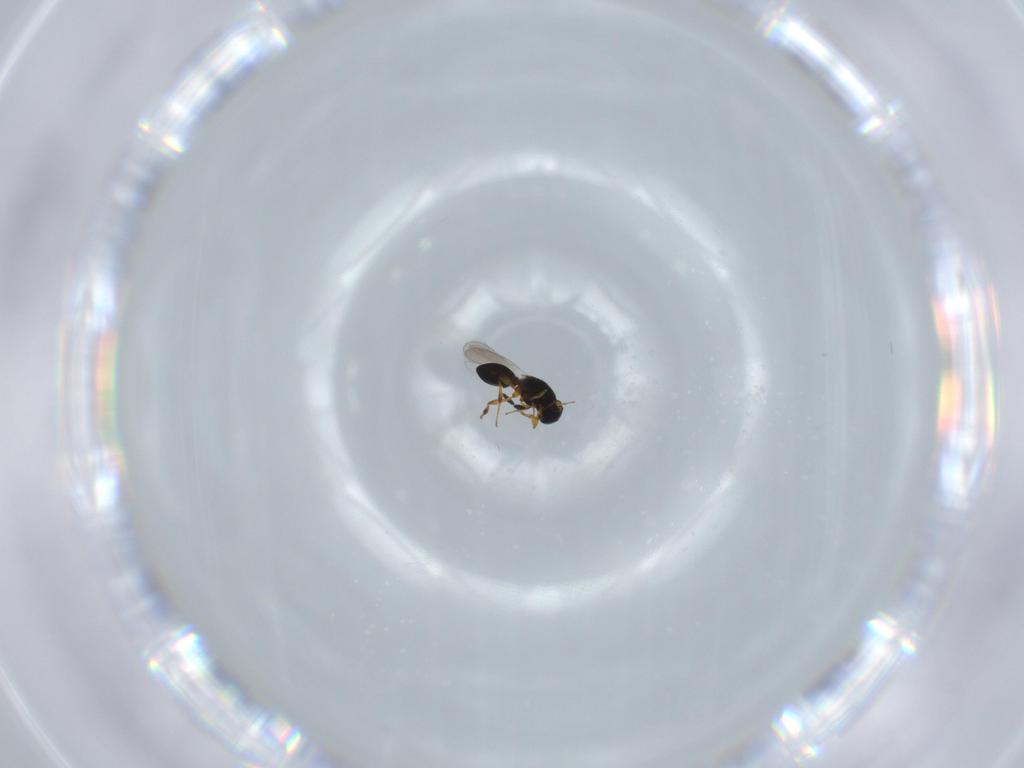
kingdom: Animalia
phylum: Arthropoda
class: Insecta
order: Hymenoptera
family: Platygastridae
